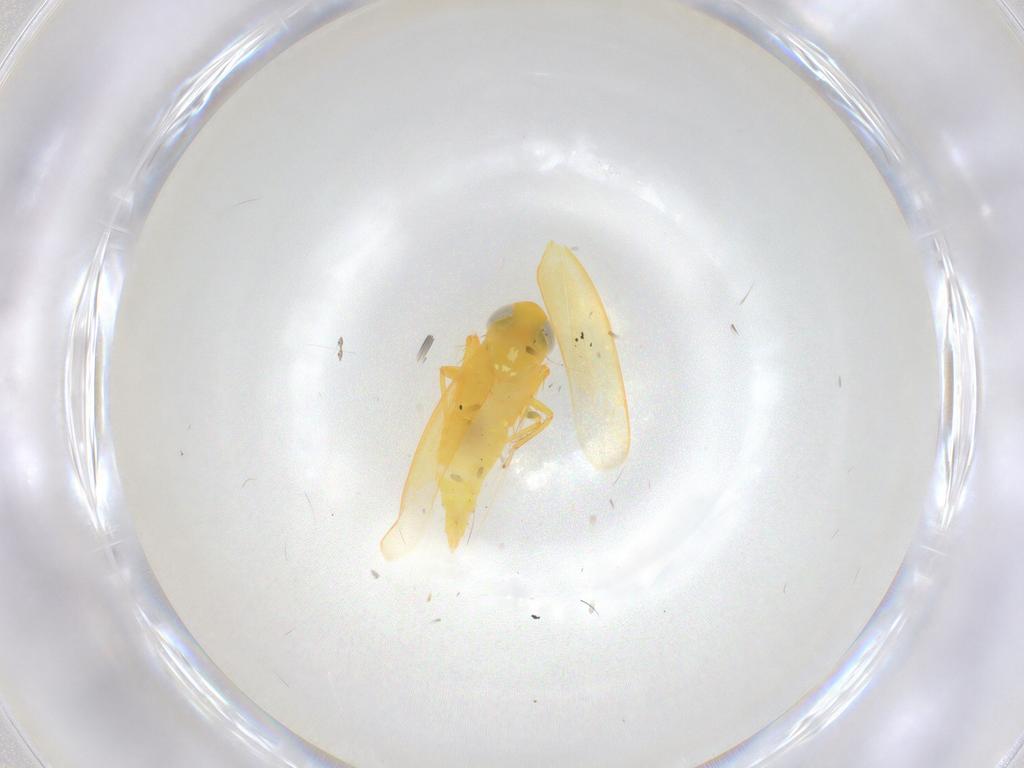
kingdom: Animalia
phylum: Arthropoda
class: Insecta
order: Hemiptera
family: Cicadellidae
